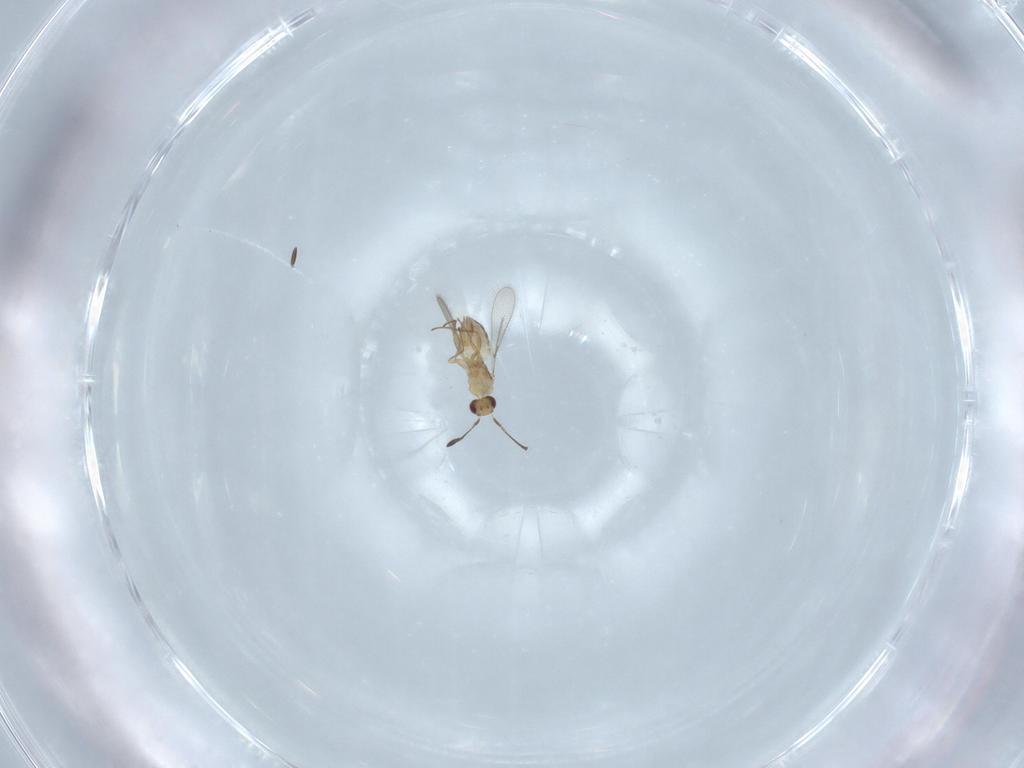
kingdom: Animalia
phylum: Arthropoda
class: Insecta
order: Hymenoptera
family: Mymaridae
